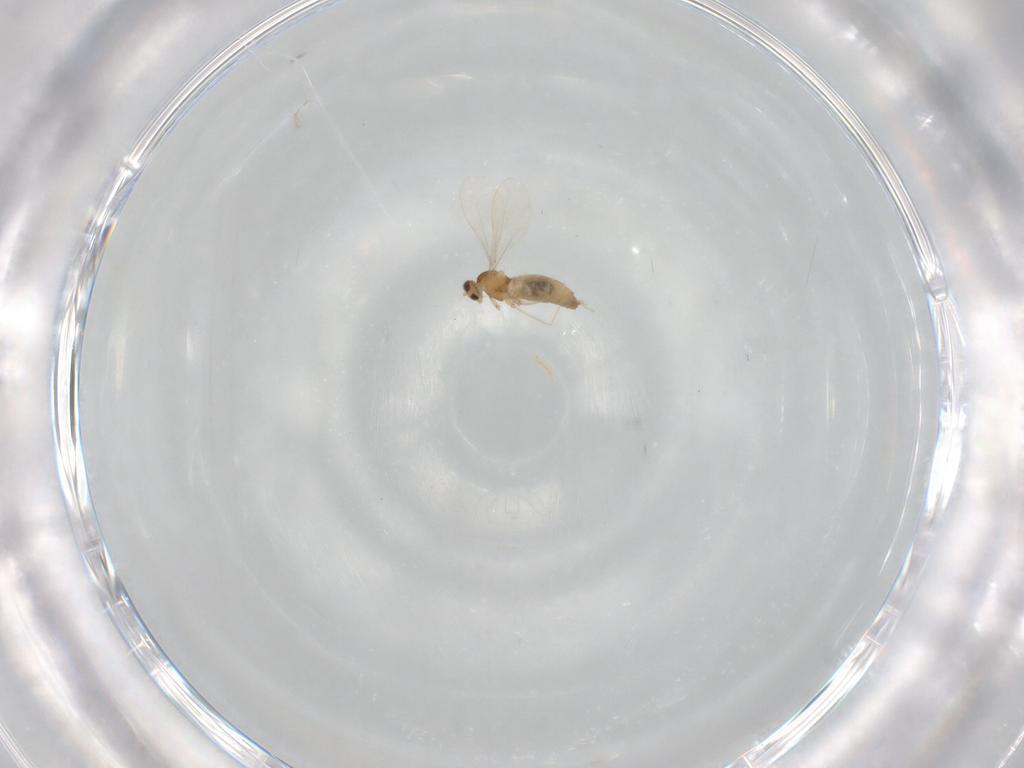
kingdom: Animalia
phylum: Arthropoda
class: Insecta
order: Diptera
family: Cecidomyiidae
